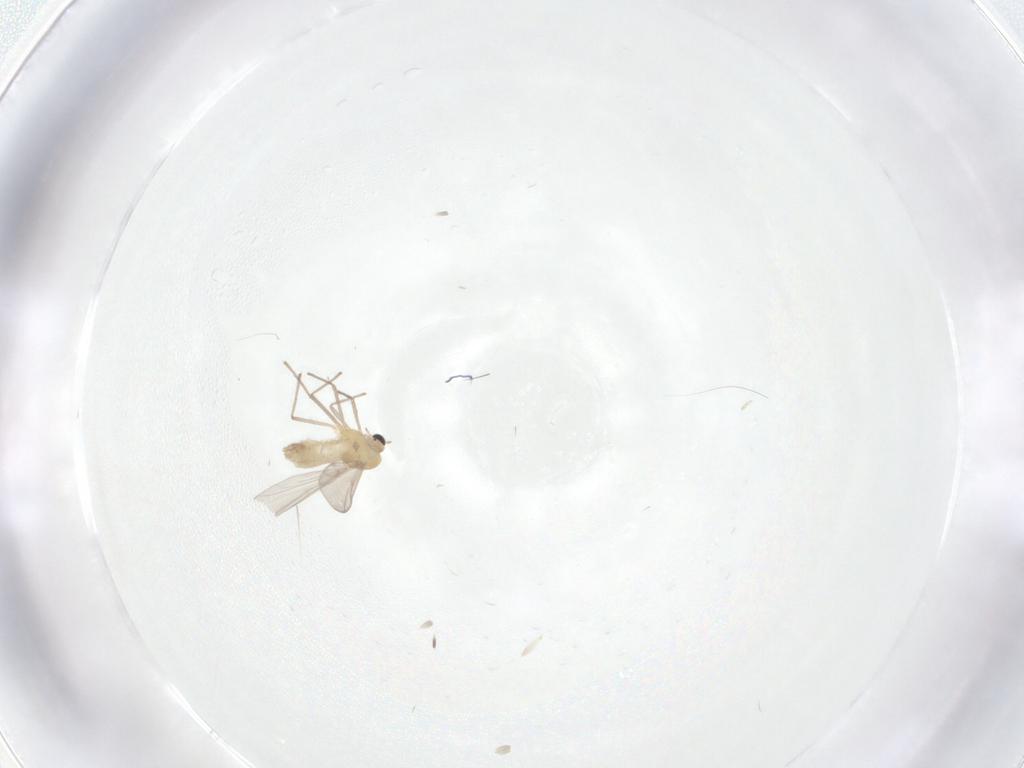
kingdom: Animalia
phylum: Arthropoda
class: Insecta
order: Diptera
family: Chironomidae
